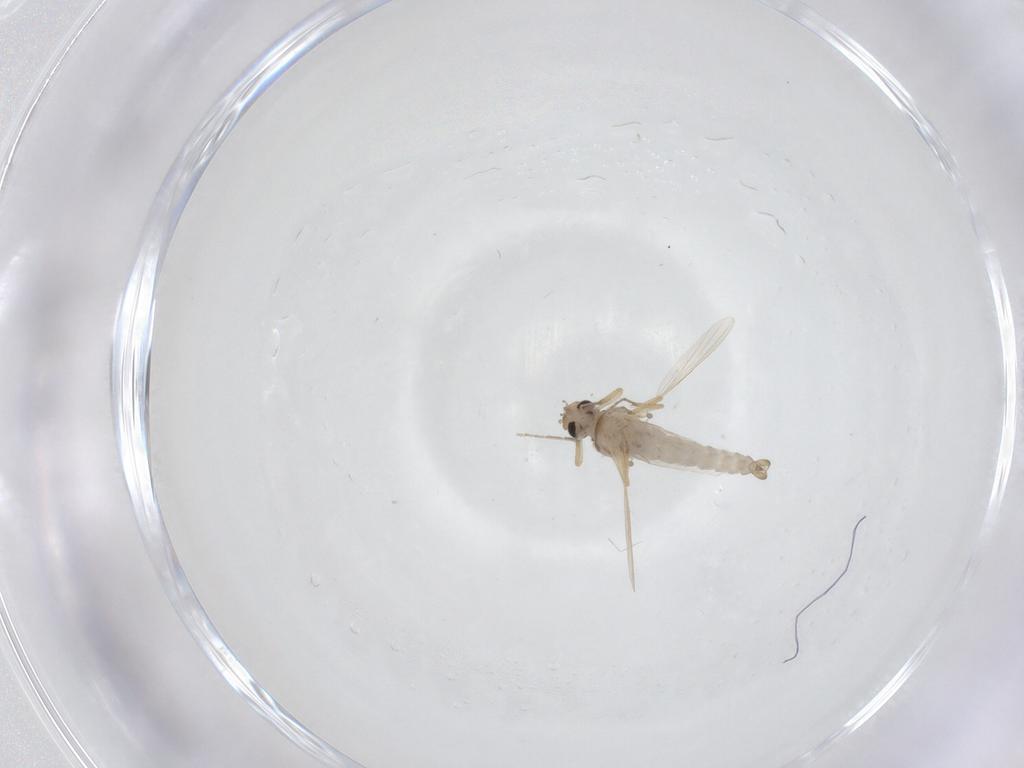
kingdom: Animalia
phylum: Arthropoda
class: Insecta
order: Diptera
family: Ceratopogonidae
